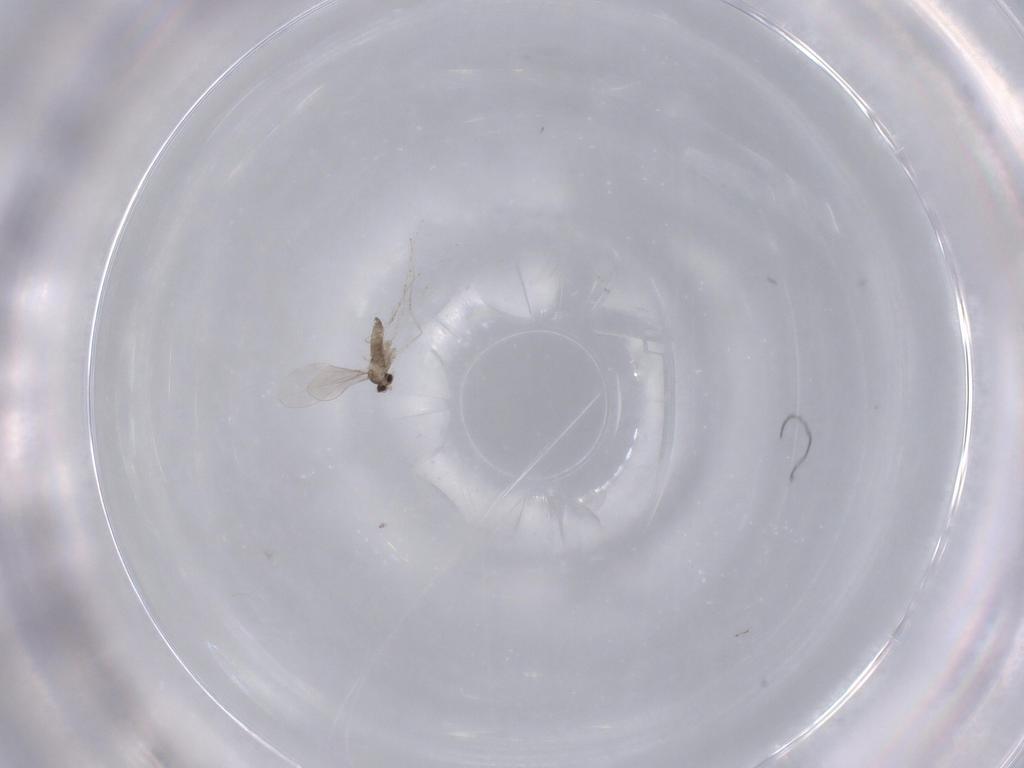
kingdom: Animalia
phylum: Arthropoda
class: Insecta
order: Diptera
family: Cecidomyiidae
